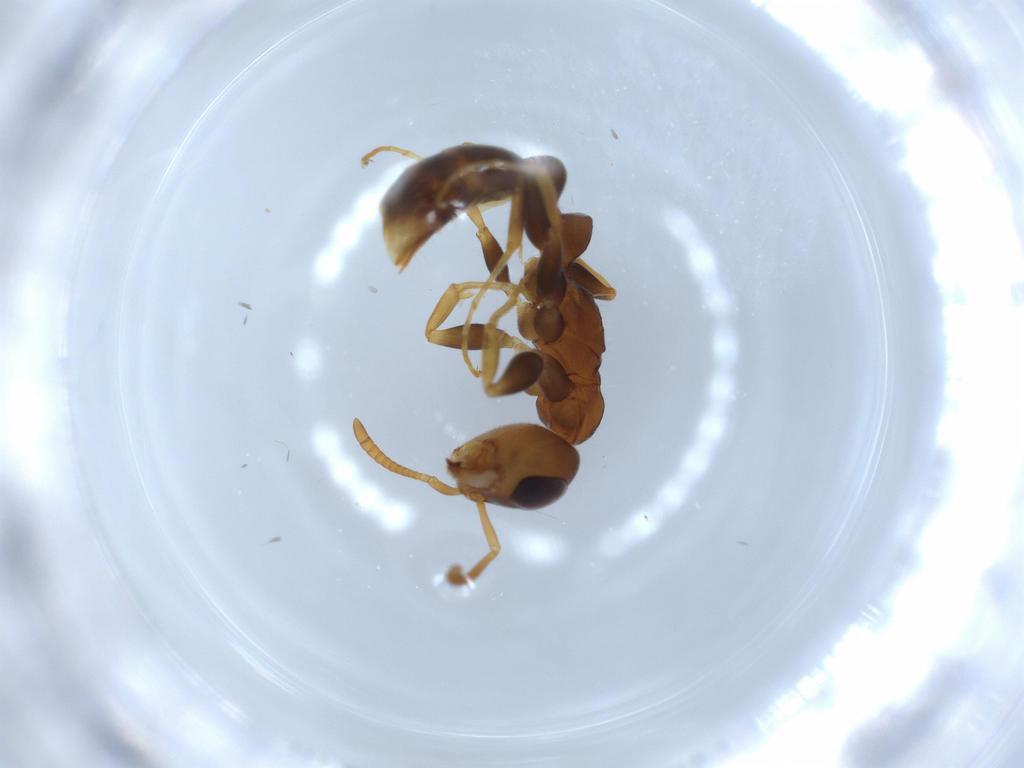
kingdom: Animalia
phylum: Arthropoda
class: Insecta
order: Hymenoptera
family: Formicidae
